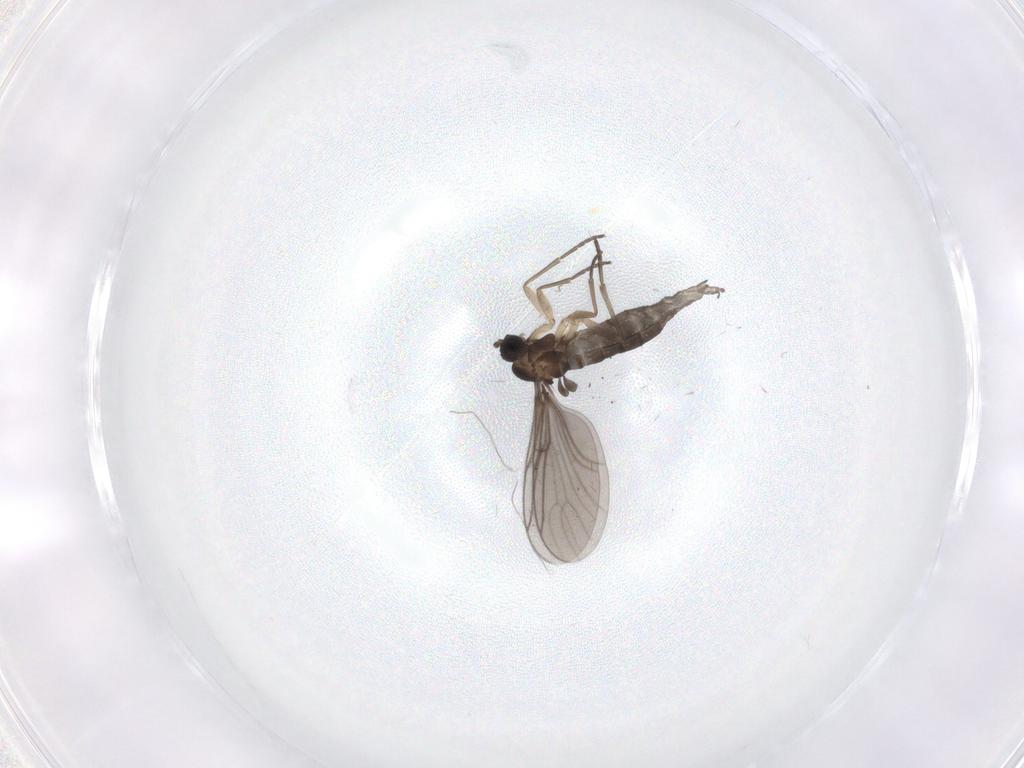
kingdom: Animalia
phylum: Arthropoda
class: Insecta
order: Diptera
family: Sciaridae
